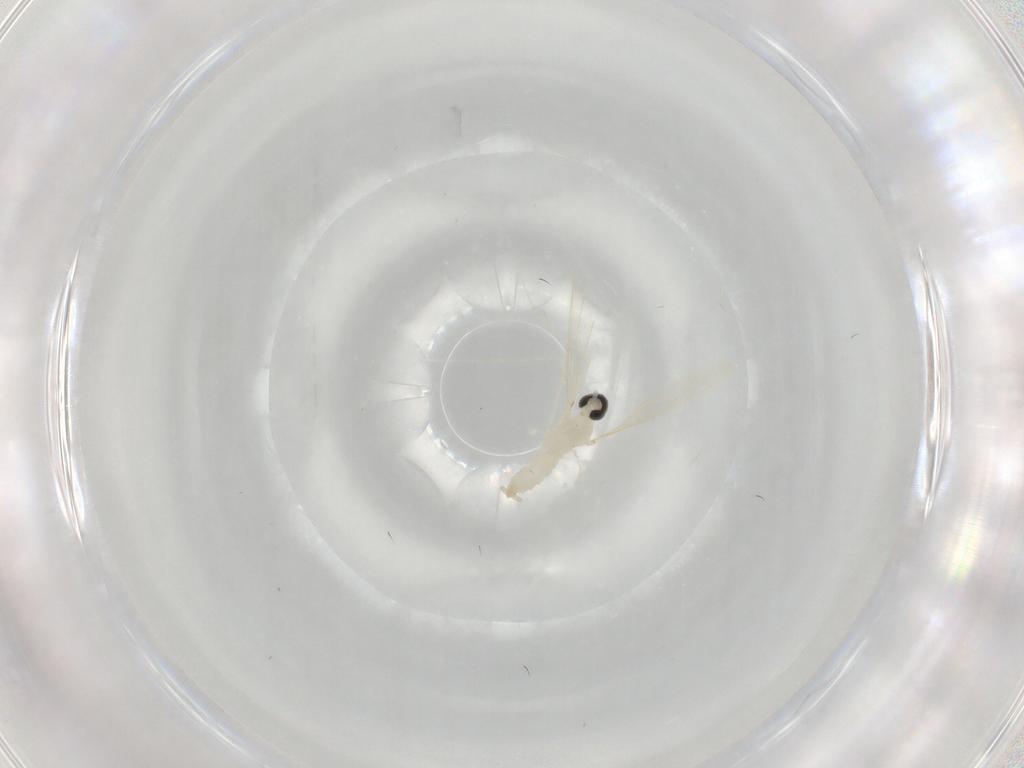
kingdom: Animalia
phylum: Arthropoda
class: Insecta
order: Diptera
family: Cecidomyiidae
